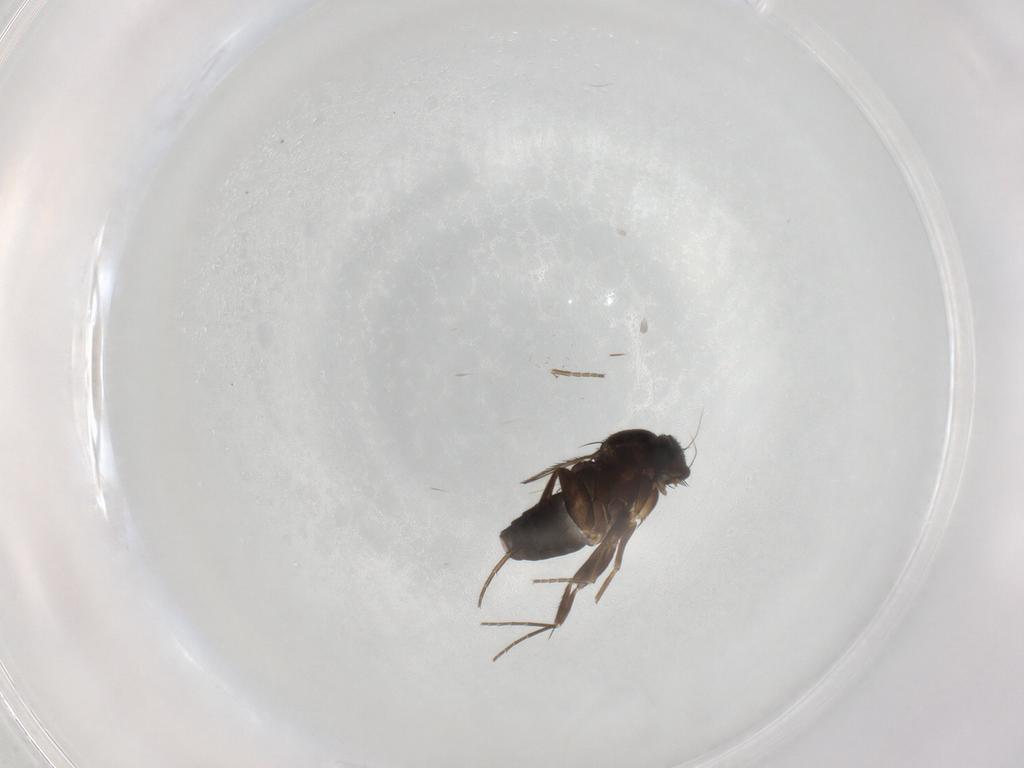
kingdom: Animalia
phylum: Arthropoda
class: Insecta
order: Diptera
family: Phoridae
